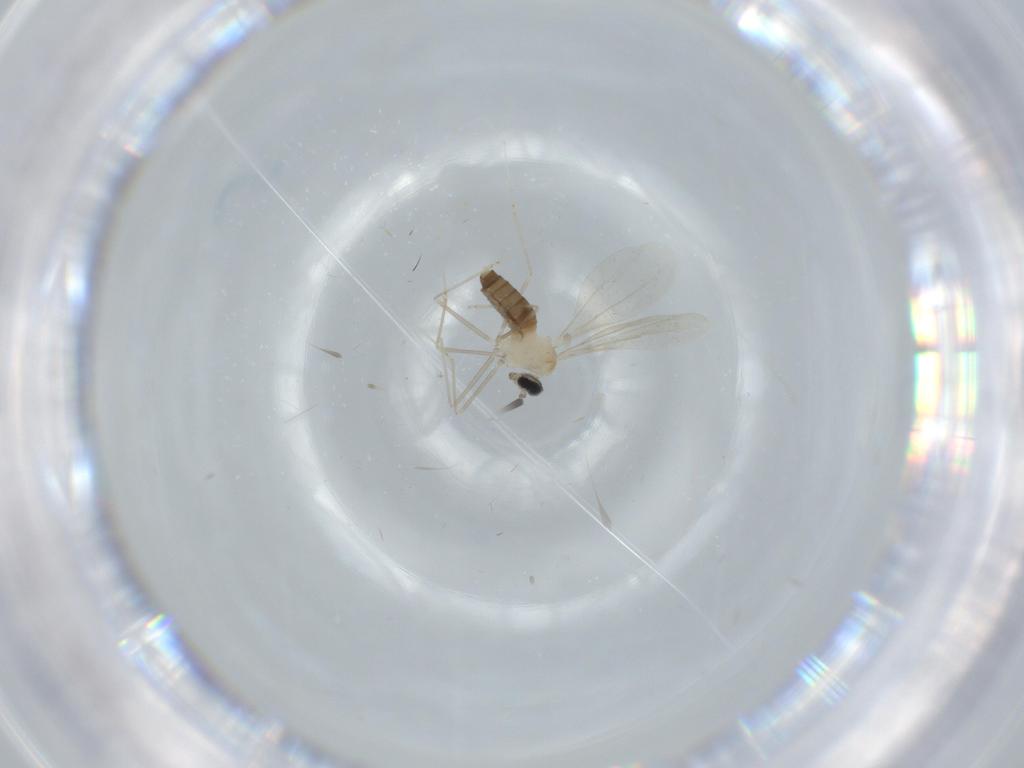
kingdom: Animalia
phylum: Arthropoda
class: Insecta
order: Diptera
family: Cecidomyiidae
